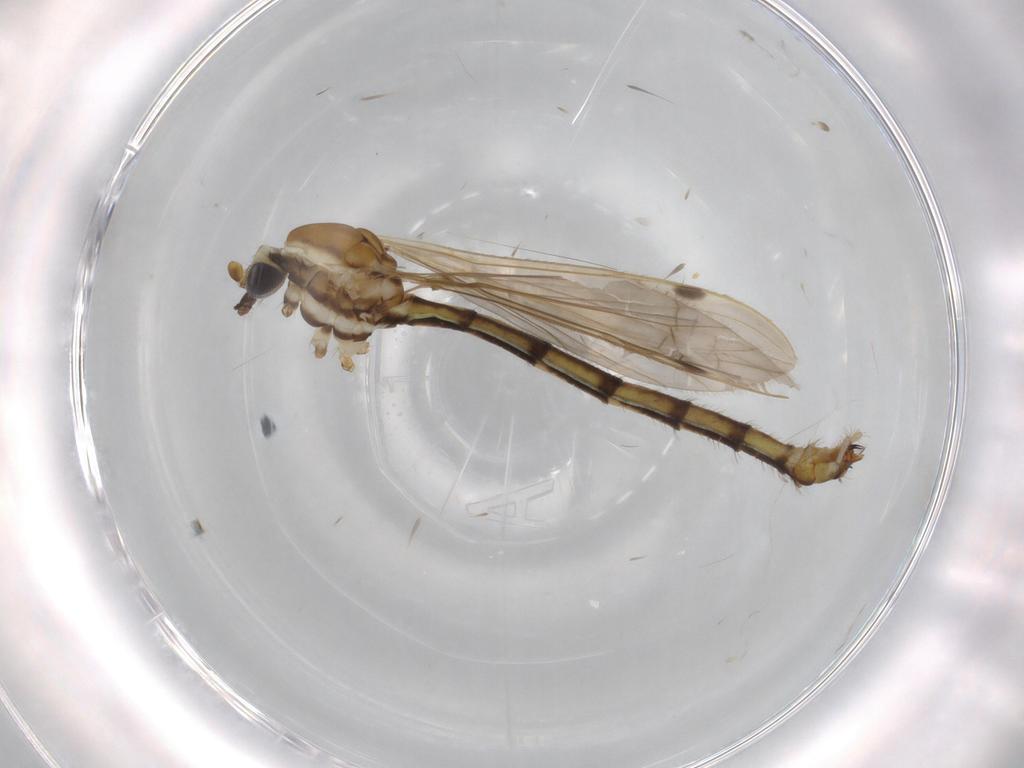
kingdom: Animalia
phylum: Arthropoda
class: Insecta
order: Diptera
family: Cecidomyiidae
